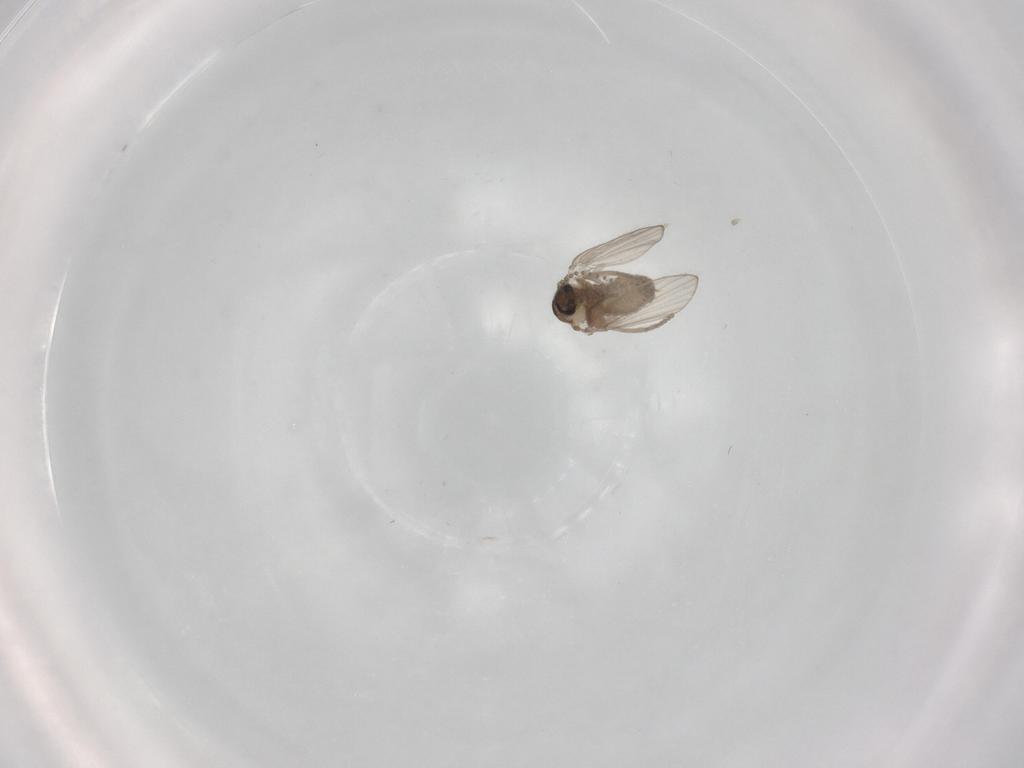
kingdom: Animalia
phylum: Arthropoda
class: Insecta
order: Diptera
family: Psychodidae
